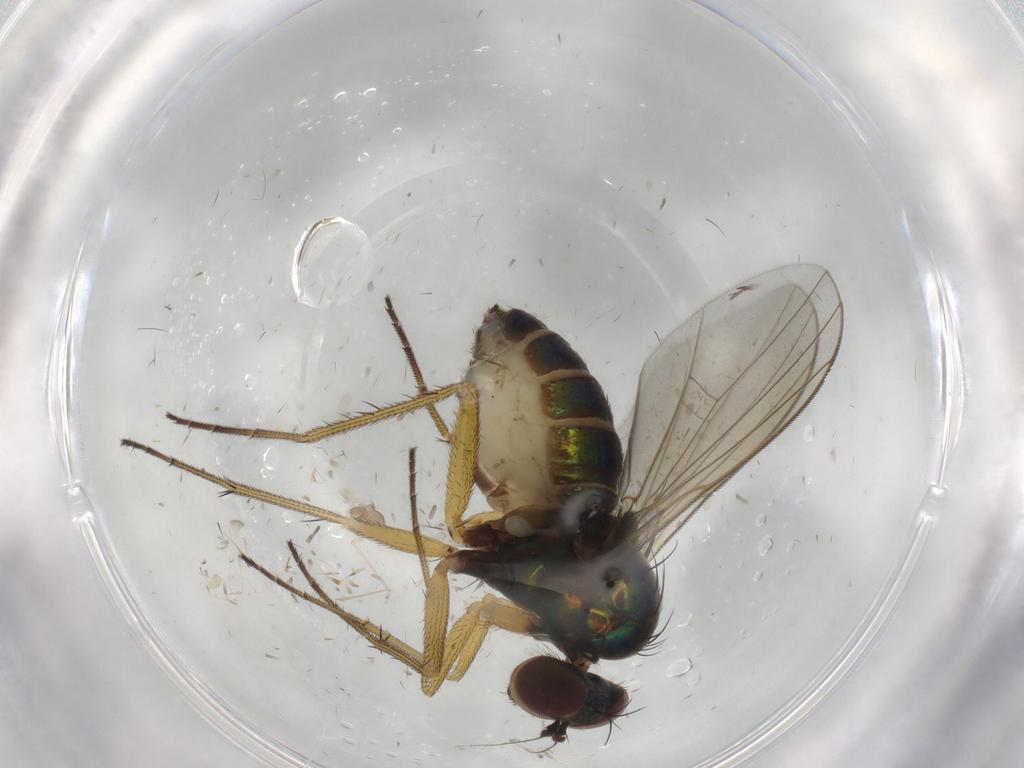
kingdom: Animalia
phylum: Arthropoda
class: Insecta
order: Diptera
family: Cecidomyiidae
